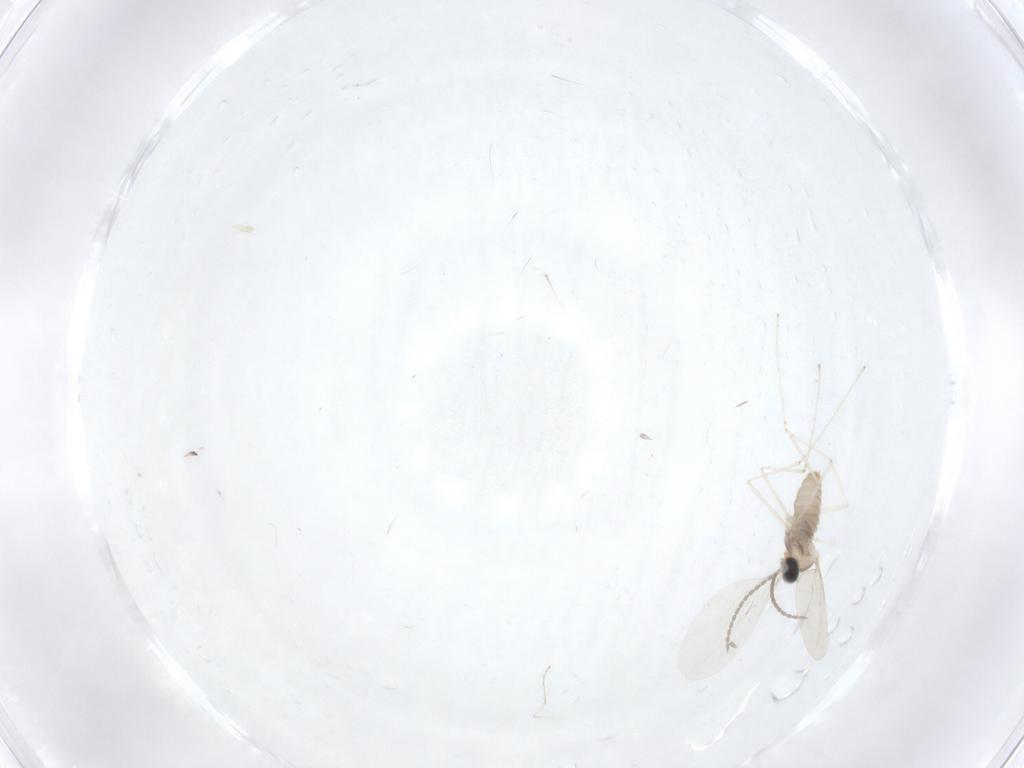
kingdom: Animalia
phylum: Arthropoda
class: Insecta
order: Diptera
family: Cecidomyiidae
